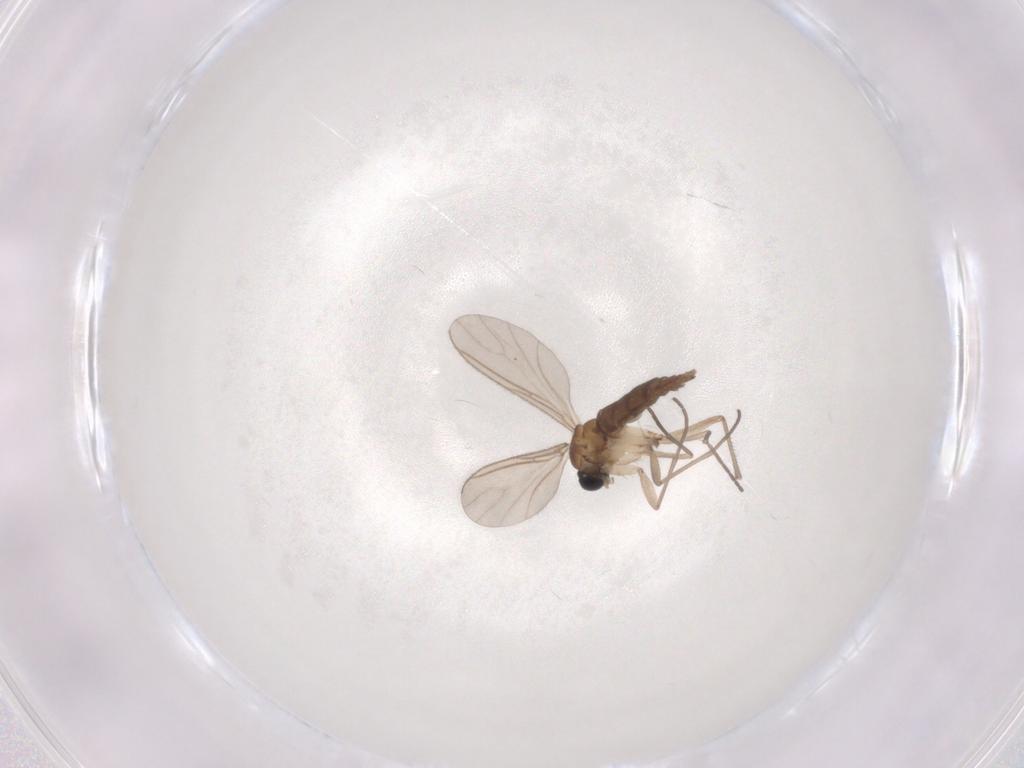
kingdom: Animalia
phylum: Arthropoda
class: Insecta
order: Diptera
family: Sciaridae
